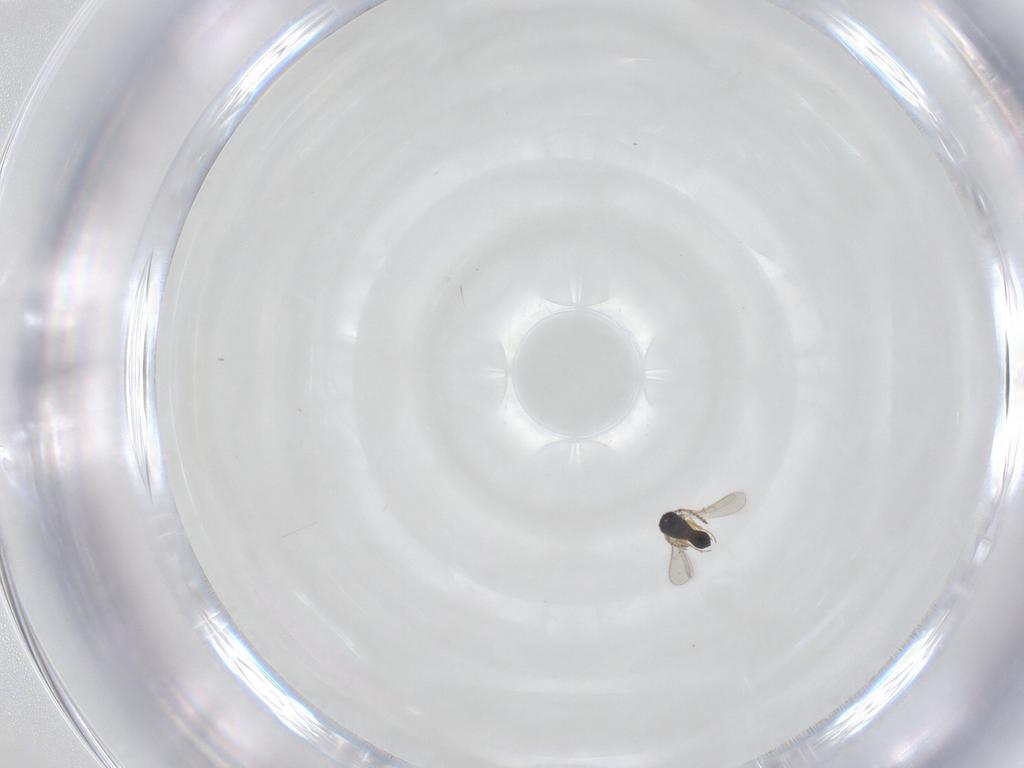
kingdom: Animalia
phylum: Arthropoda
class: Insecta
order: Hymenoptera
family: Scelionidae
